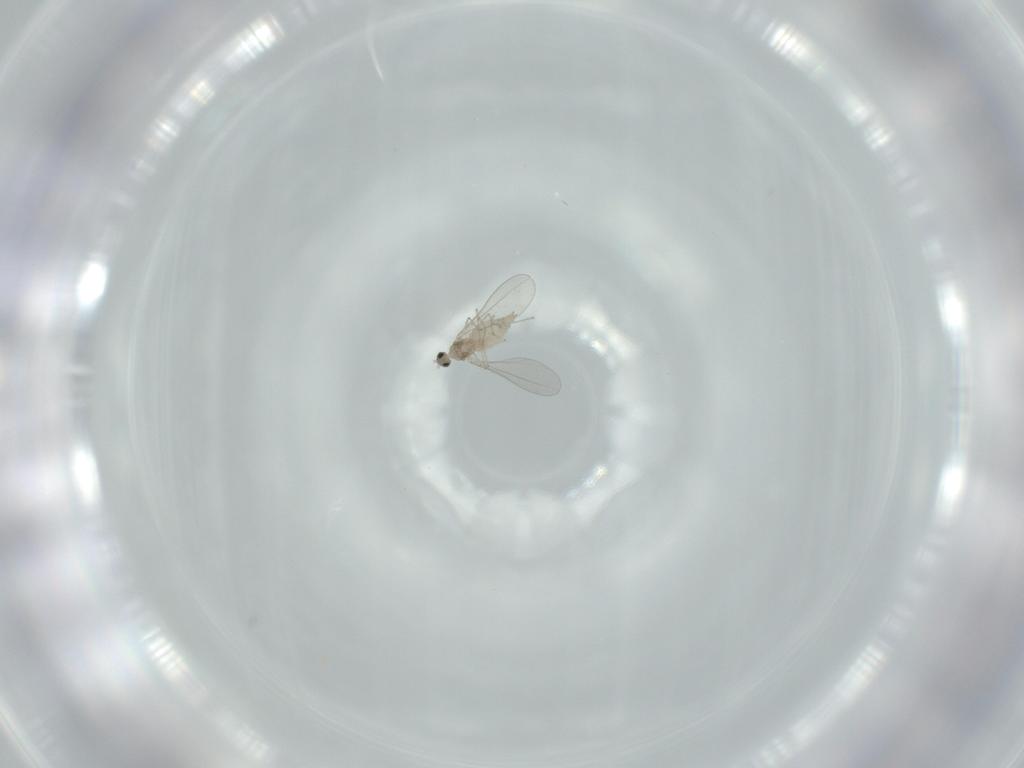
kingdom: Animalia
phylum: Arthropoda
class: Insecta
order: Diptera
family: Cecidomyiidae
